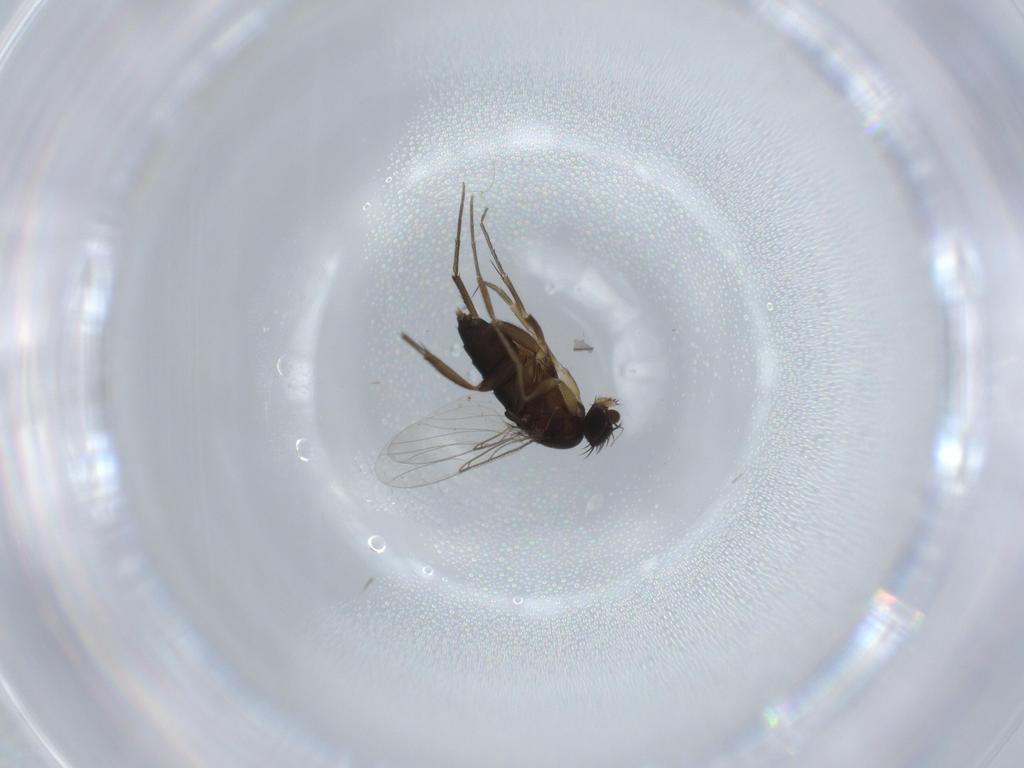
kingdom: Animalia
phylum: Arthropoda
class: Insecta
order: Diptera
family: Phoridae
